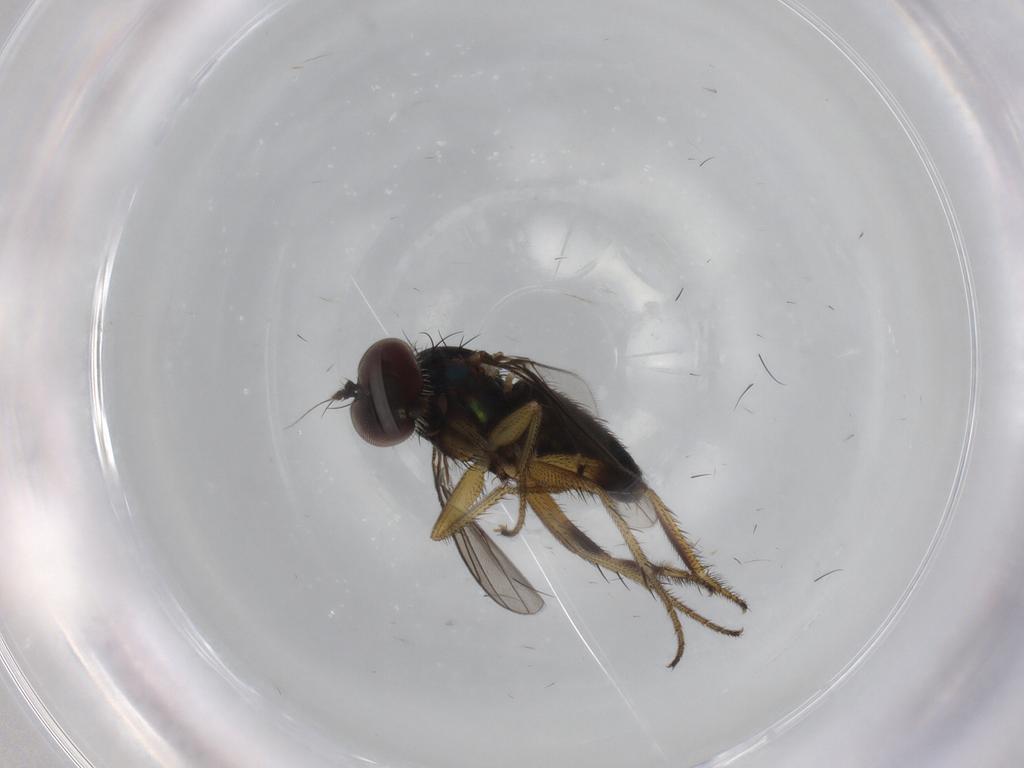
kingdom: Animalia
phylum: Arthropoda
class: Insecta
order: Diptera
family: Dolichopodidae
